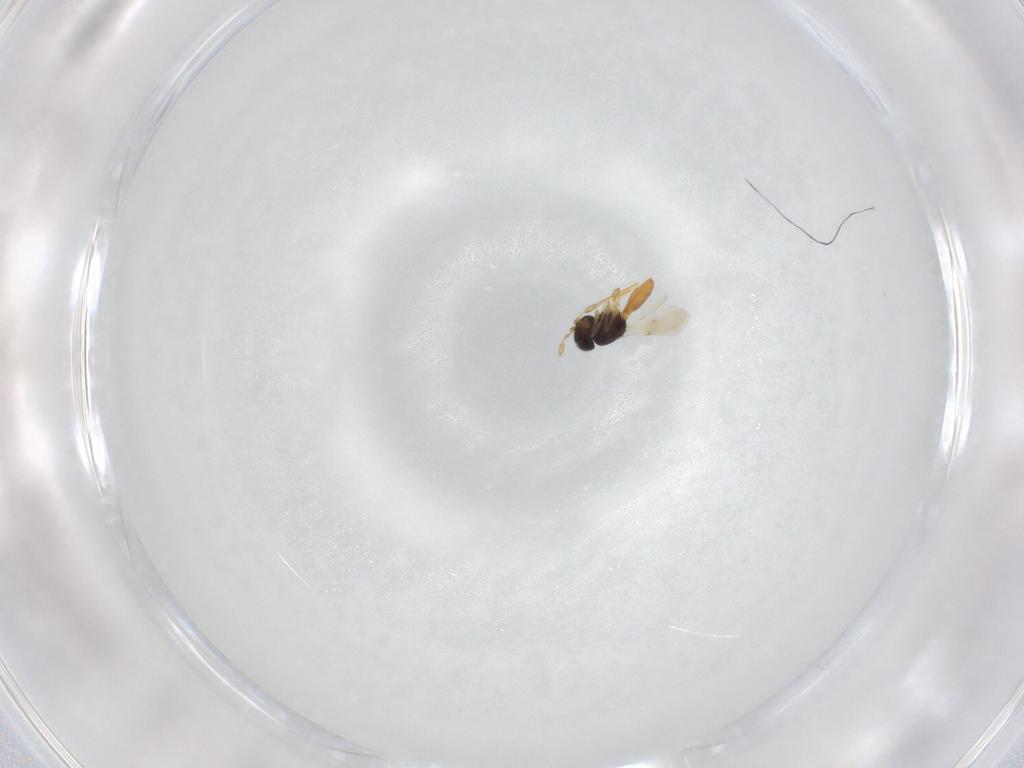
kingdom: Animalia
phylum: Arthropoda
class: Insecta
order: Hymenoptera
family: Scelionidae
